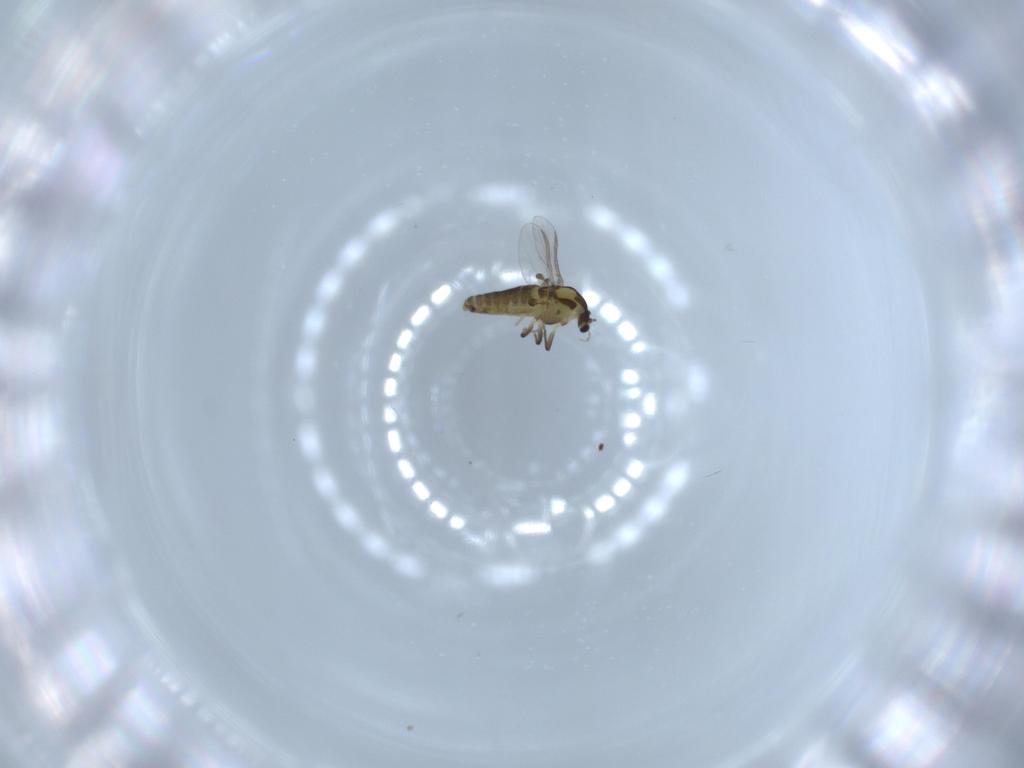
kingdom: Animalia
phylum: Arthropoda
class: Insecta
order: Diptera
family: Chironomidae
